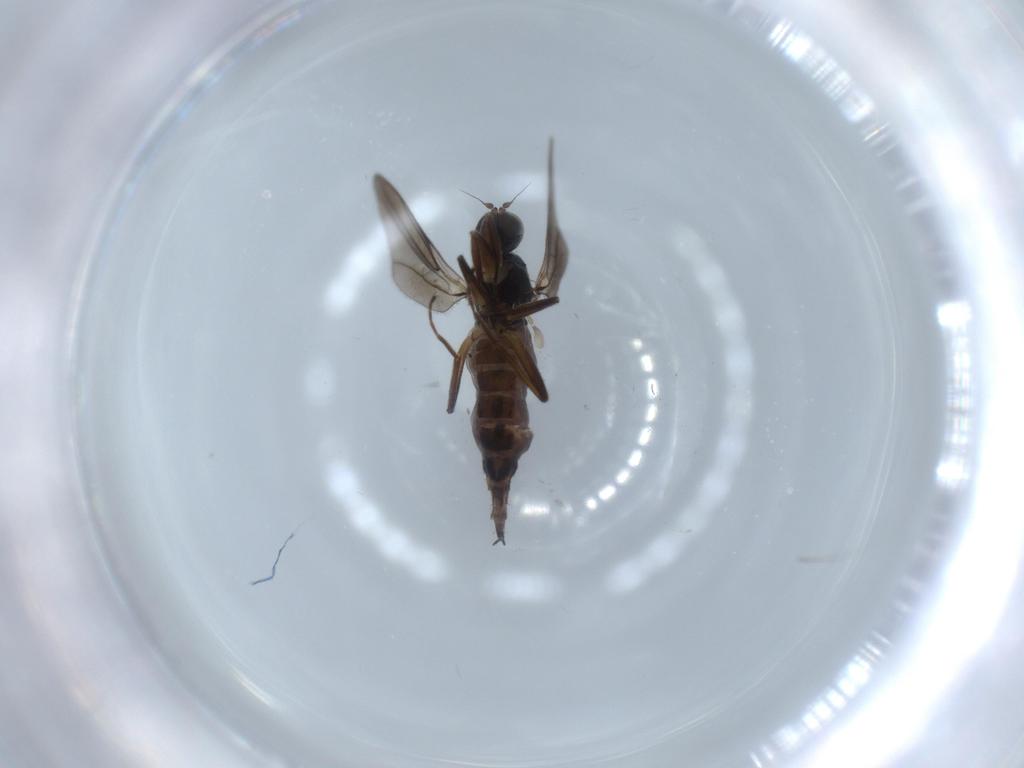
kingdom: Animalia
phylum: Arthropoda
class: Insecta
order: Diptera
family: Hybotidae
